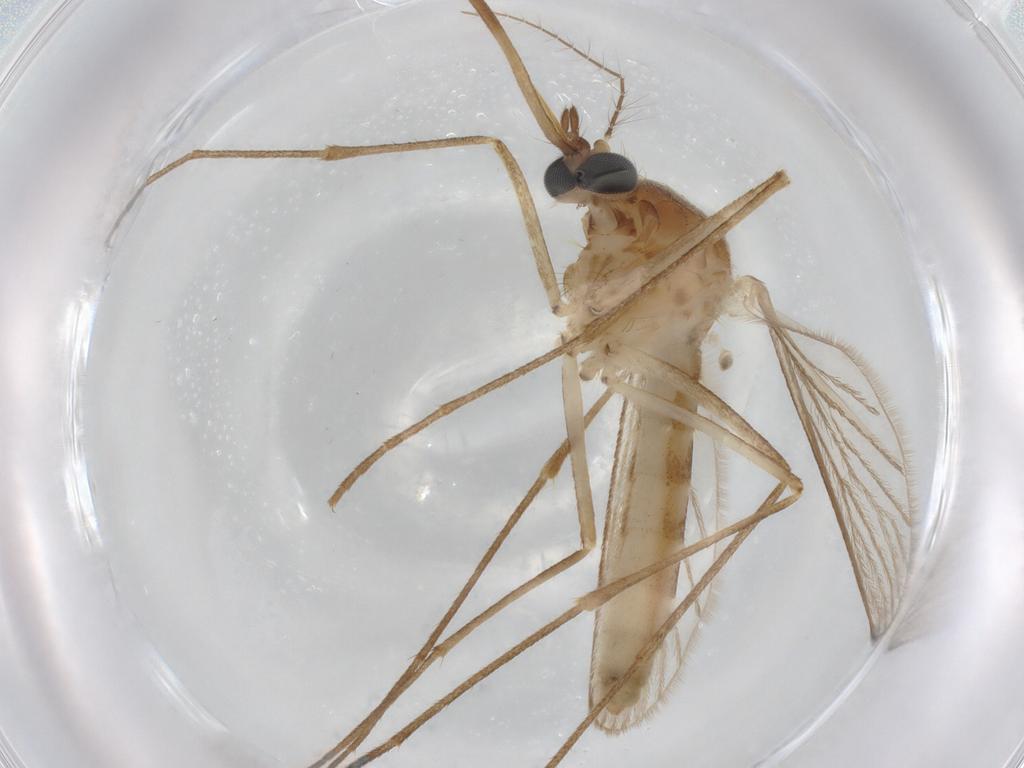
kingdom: Animalia
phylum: Arthropoda
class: Insecta
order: Diptera
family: Culicidae
